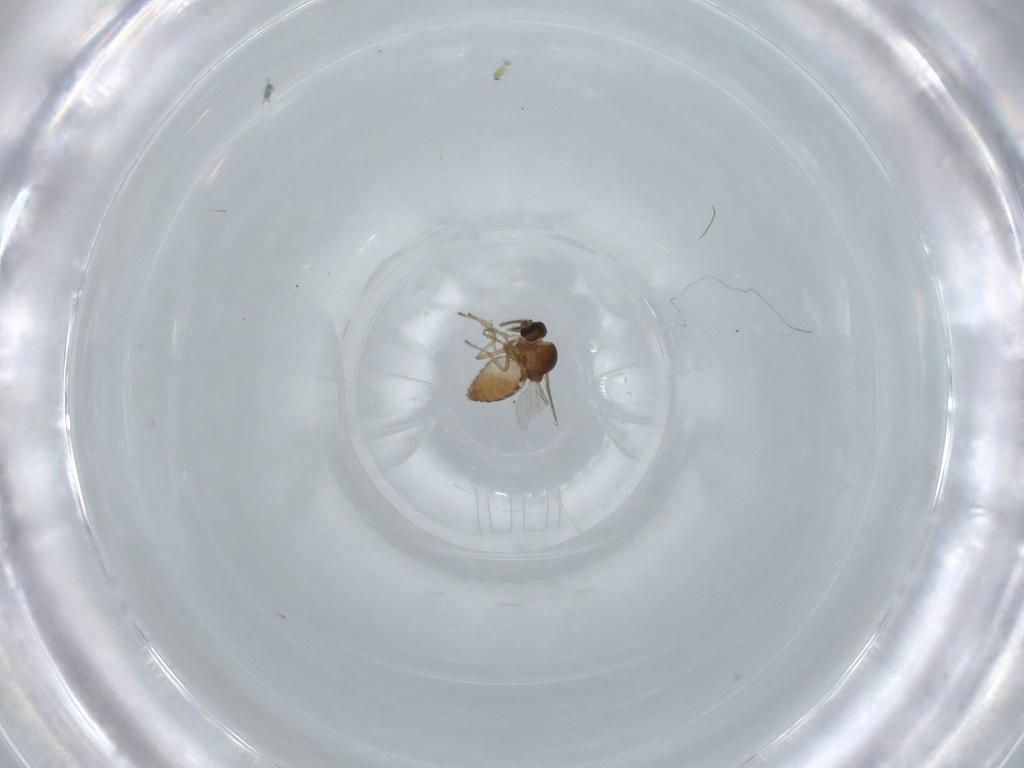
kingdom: Animalia
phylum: Arthropoda
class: Insecta
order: Diptera
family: Ceratopogonidae
